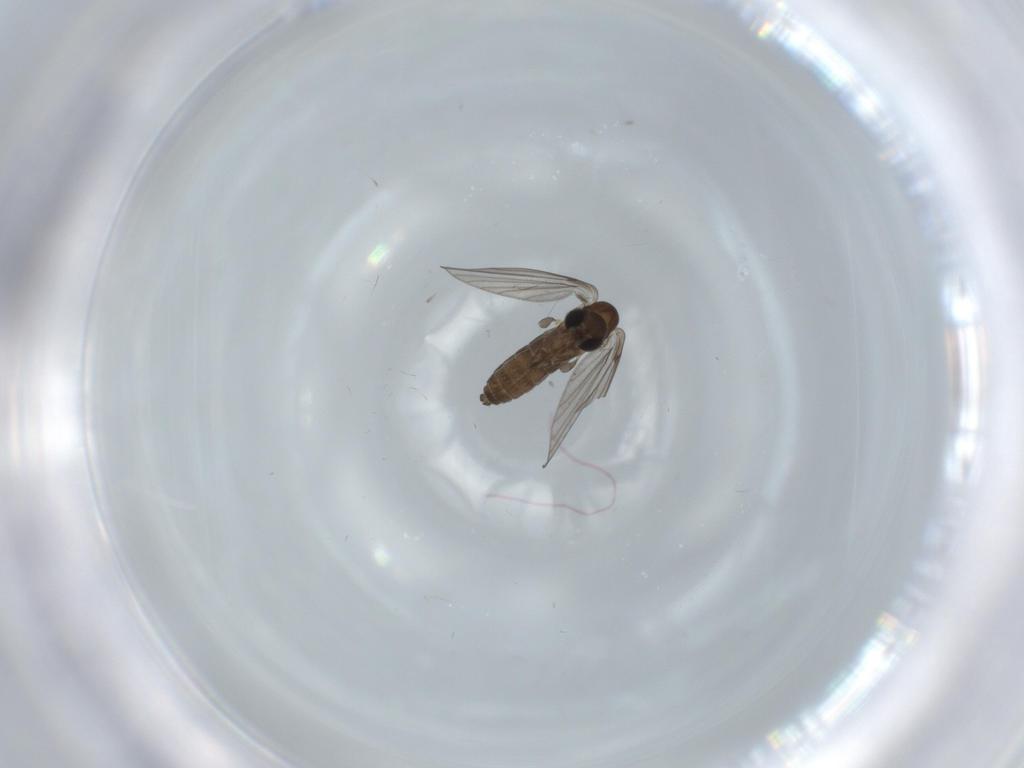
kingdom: Animalia
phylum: Arthropoda
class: Insecta
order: Diptera
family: Psychodidae
